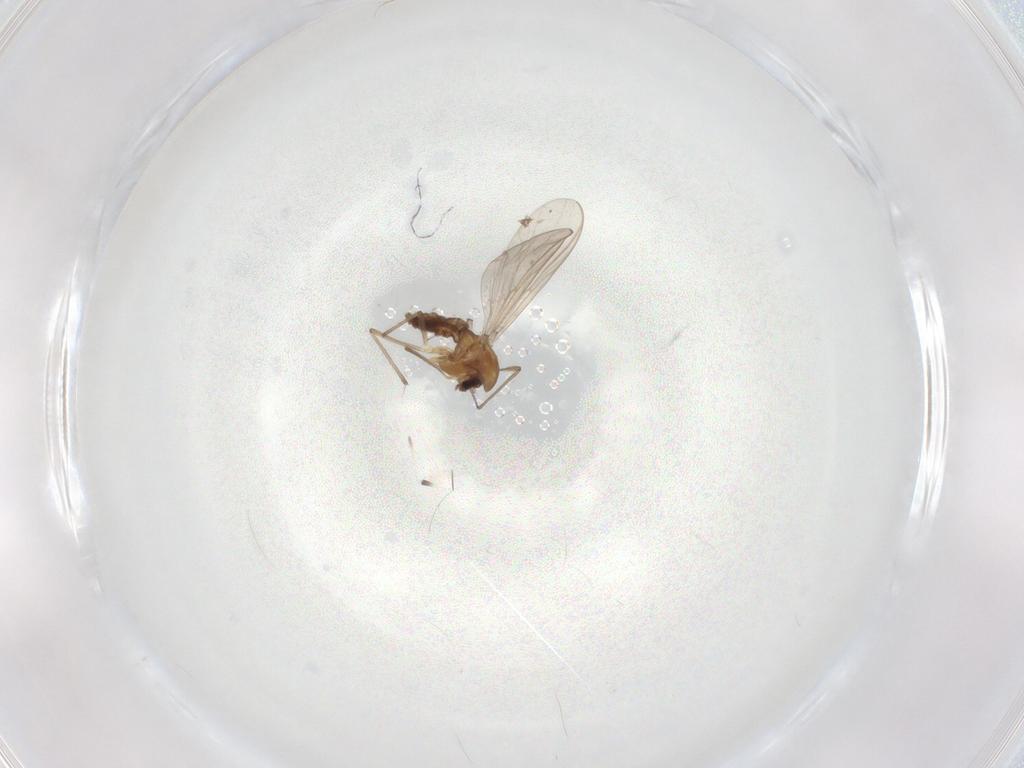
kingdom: Animalia
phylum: Arthropoda
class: Insecta
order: Diptera
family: Chironomidae
